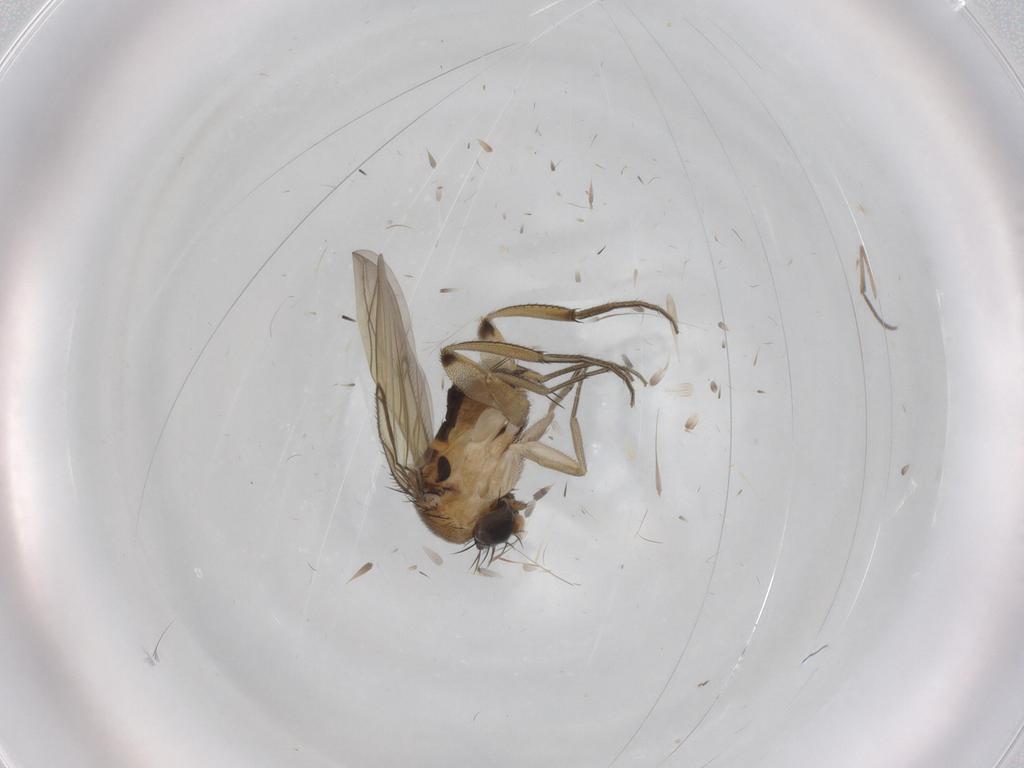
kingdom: Animalia
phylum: Arthropoda
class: Insecta
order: Diptera
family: Phoridae
